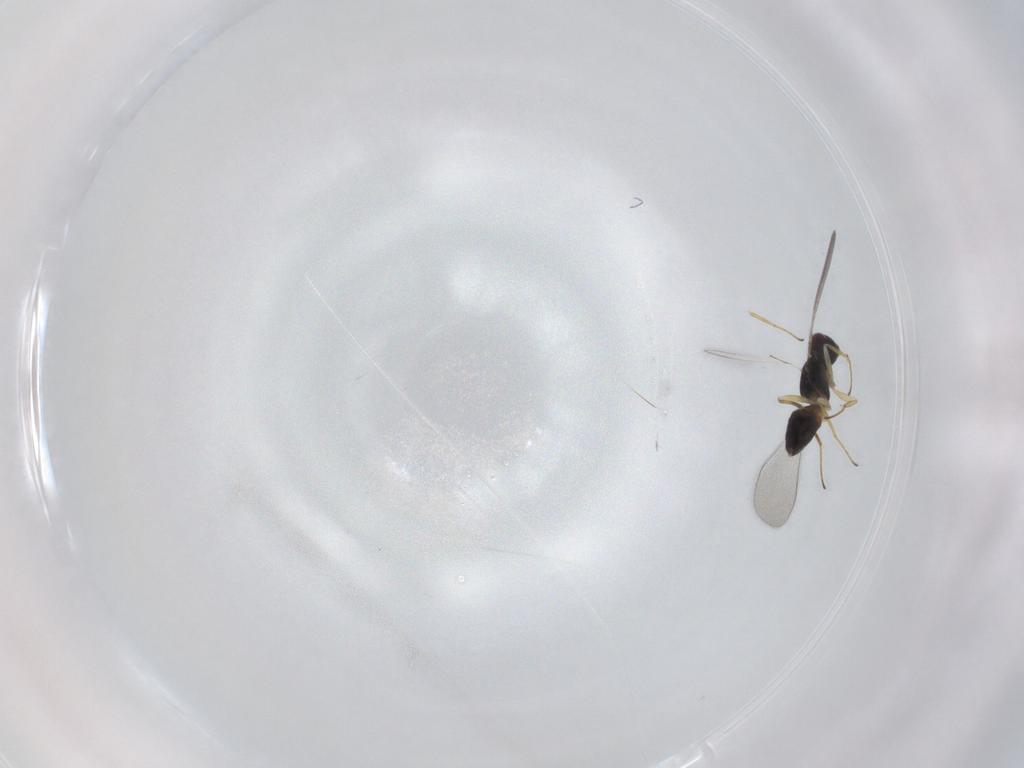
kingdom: Animalia
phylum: Arthropoda
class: Insecta
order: Hymenoptera
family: Mymaridae
